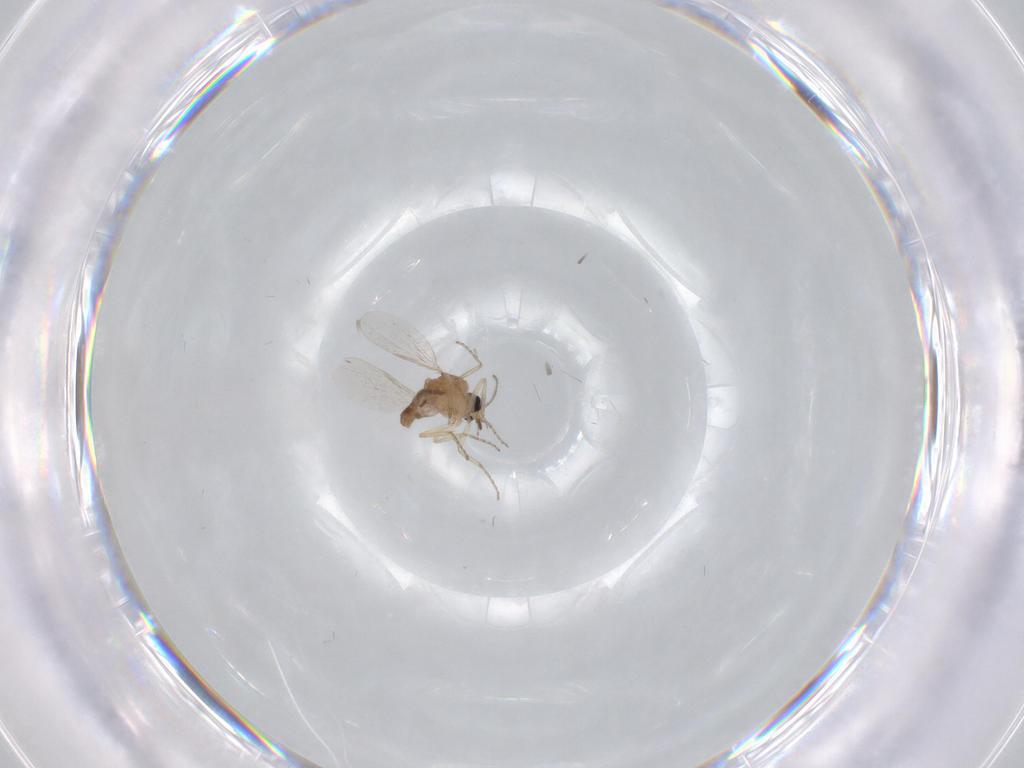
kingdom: Animalia
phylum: Arthropoda
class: Insecta
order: Diptera
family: Agromyzidae
